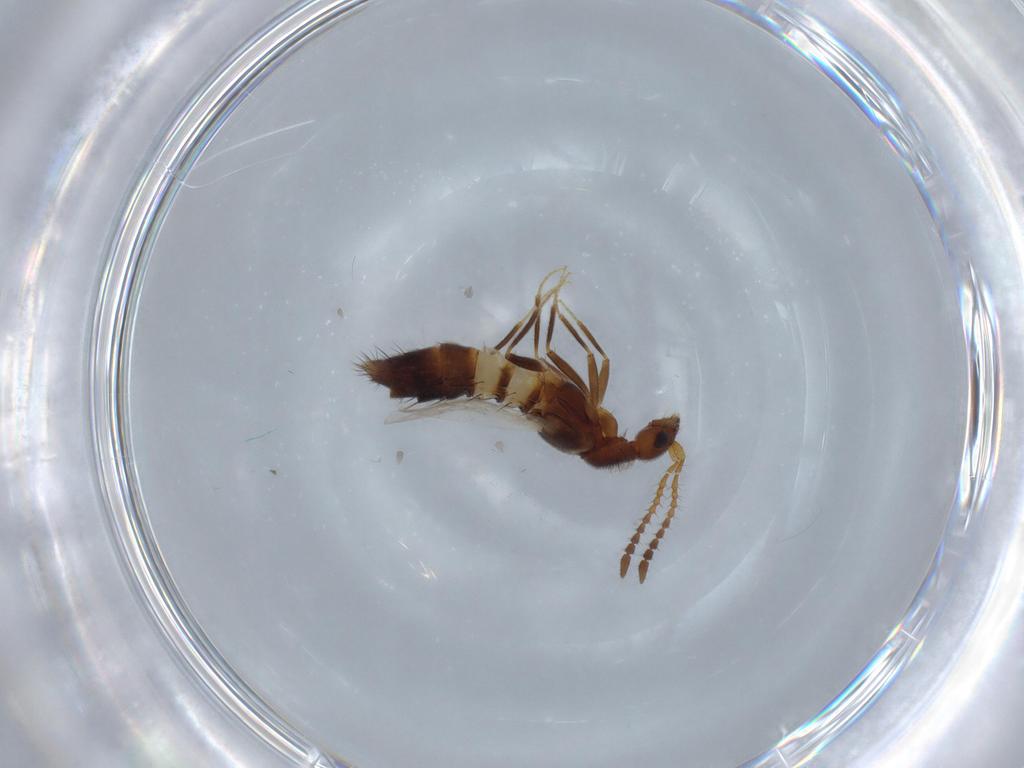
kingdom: Animalia
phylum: Arthropoda
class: Insecta
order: Coleoptera
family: Staphylinidae
